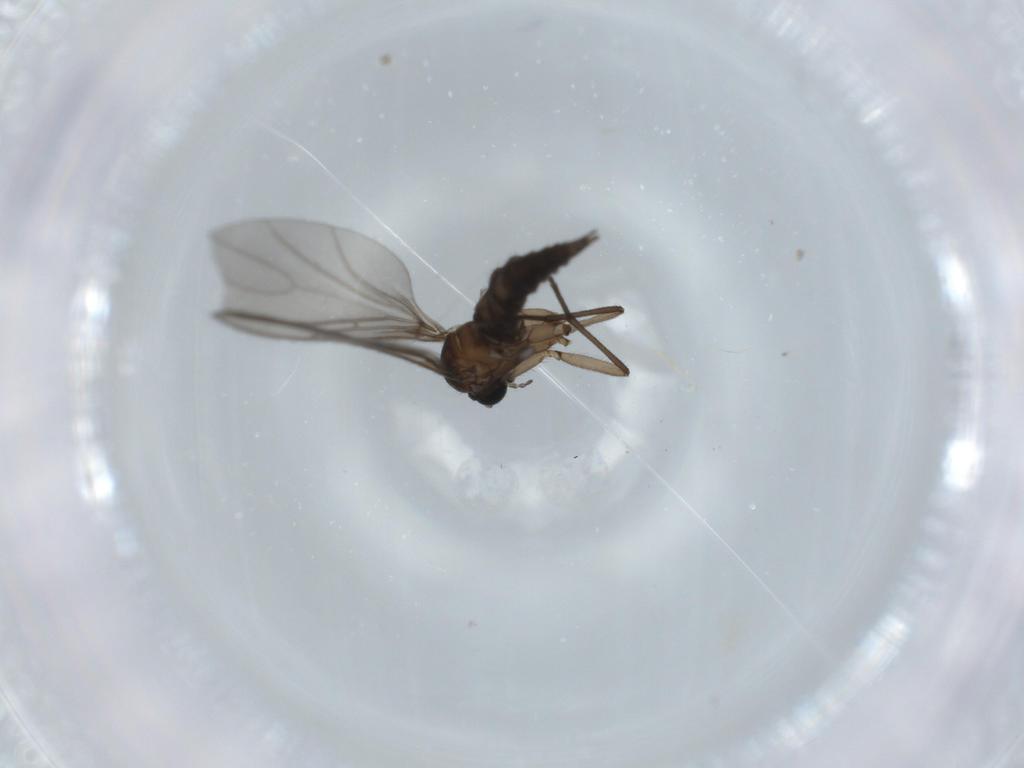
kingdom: Animalia
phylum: Arthropoda
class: Insecta
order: Diptera
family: Sciaridae
